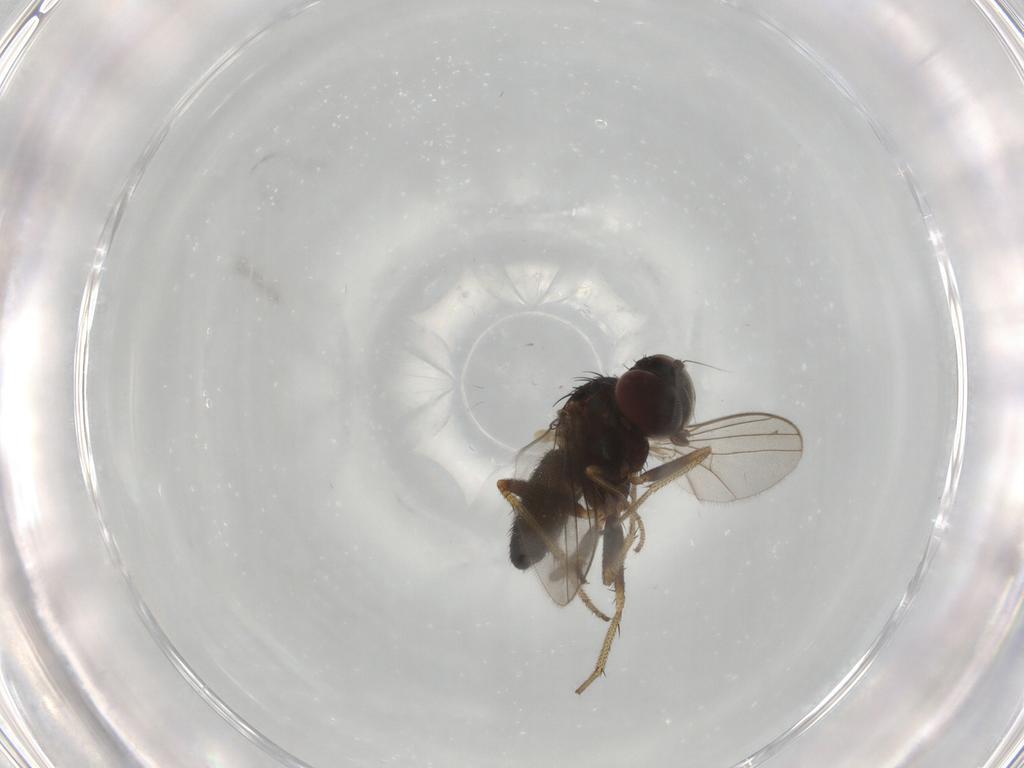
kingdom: Animalia
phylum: Arthropoda
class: Insecta
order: Diptera
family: Dolichopodidae
